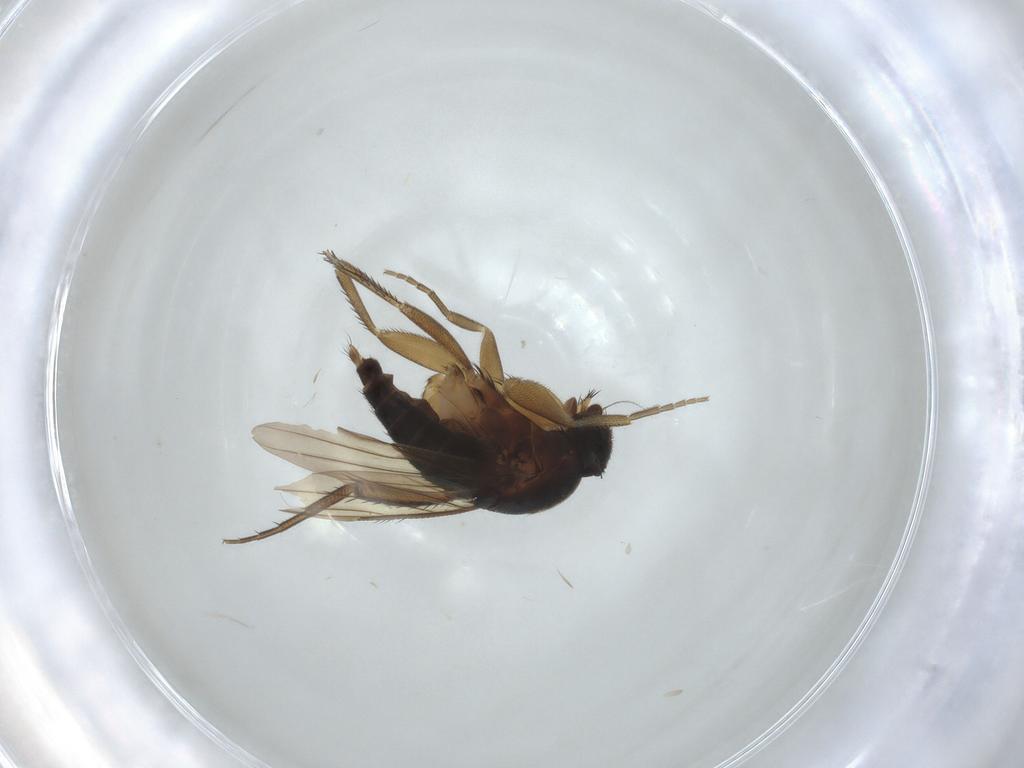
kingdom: Animalia
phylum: Arthropoda
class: Insecta
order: Diptera
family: Phoridae
